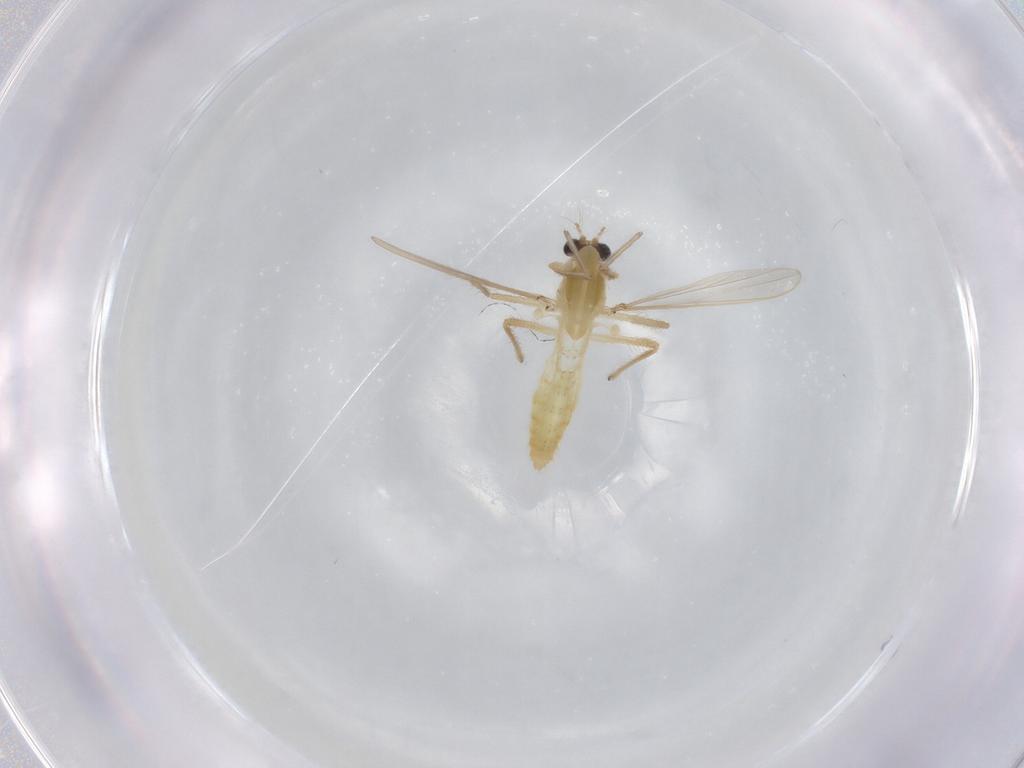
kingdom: Animalia
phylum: Arthropoda
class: Insecta
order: Diptera
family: Chironomidae
